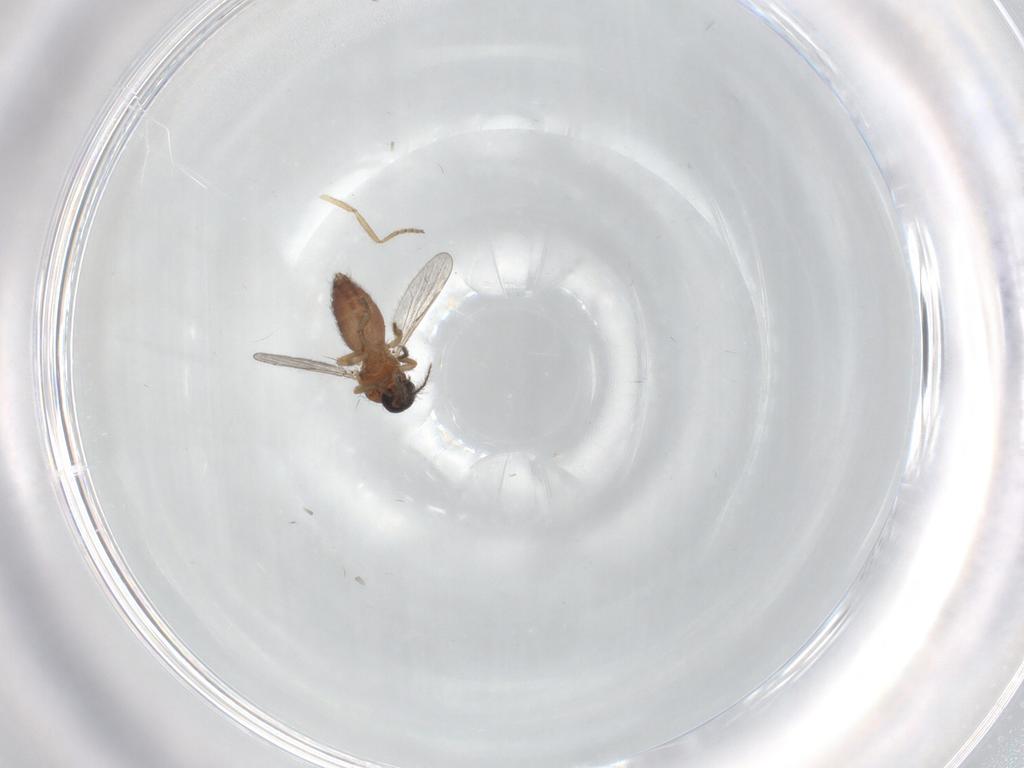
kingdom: Animalia
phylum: Arthropoda
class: Insecta
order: Diptera
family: Ceratopogonidae
